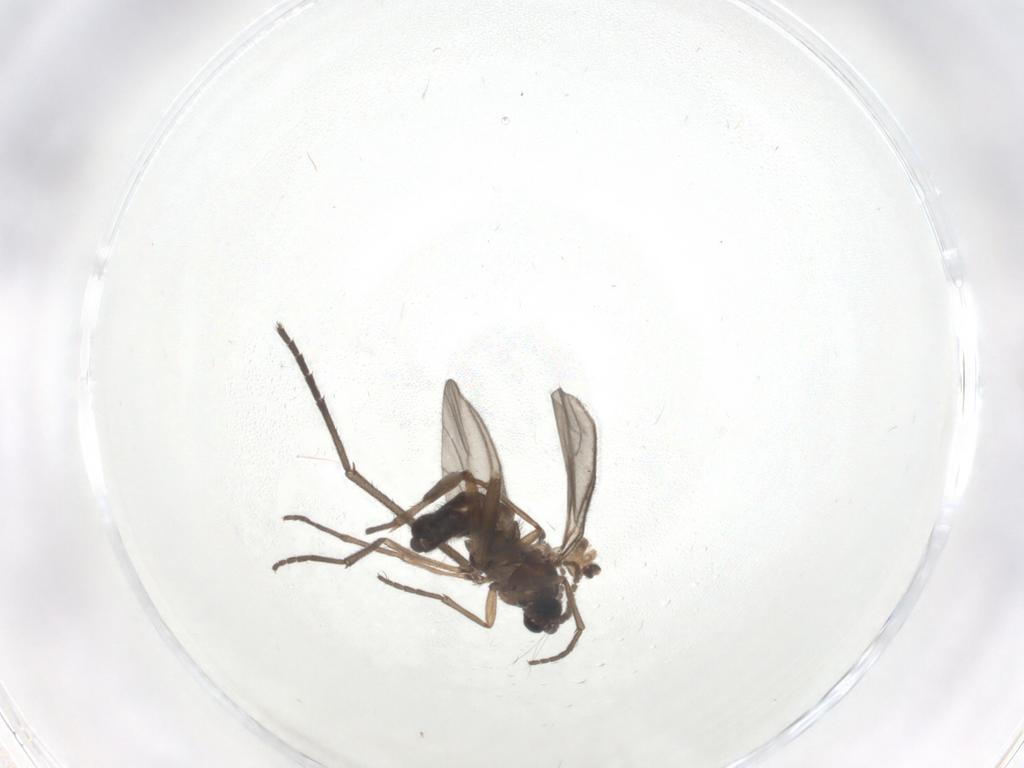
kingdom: Animalia
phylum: Arthropoda
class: Insecta
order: Diptera
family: Sciaridae
